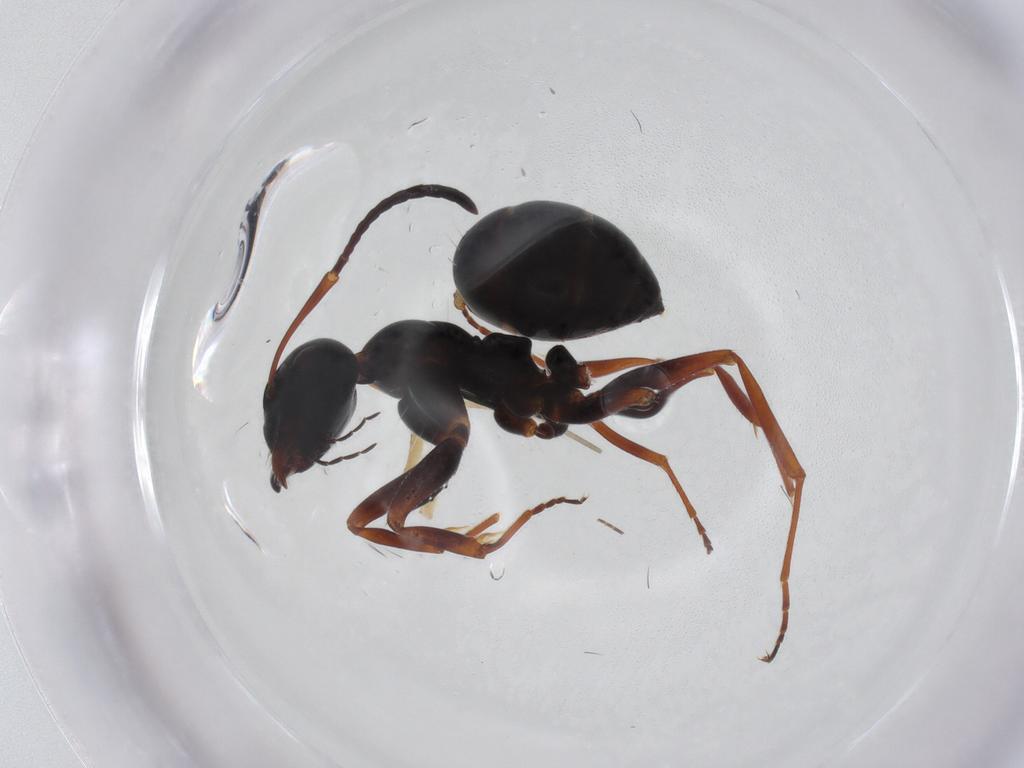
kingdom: Animalia
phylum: Arthropoda
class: Insecta
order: Hymenoptera
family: Formicidae
